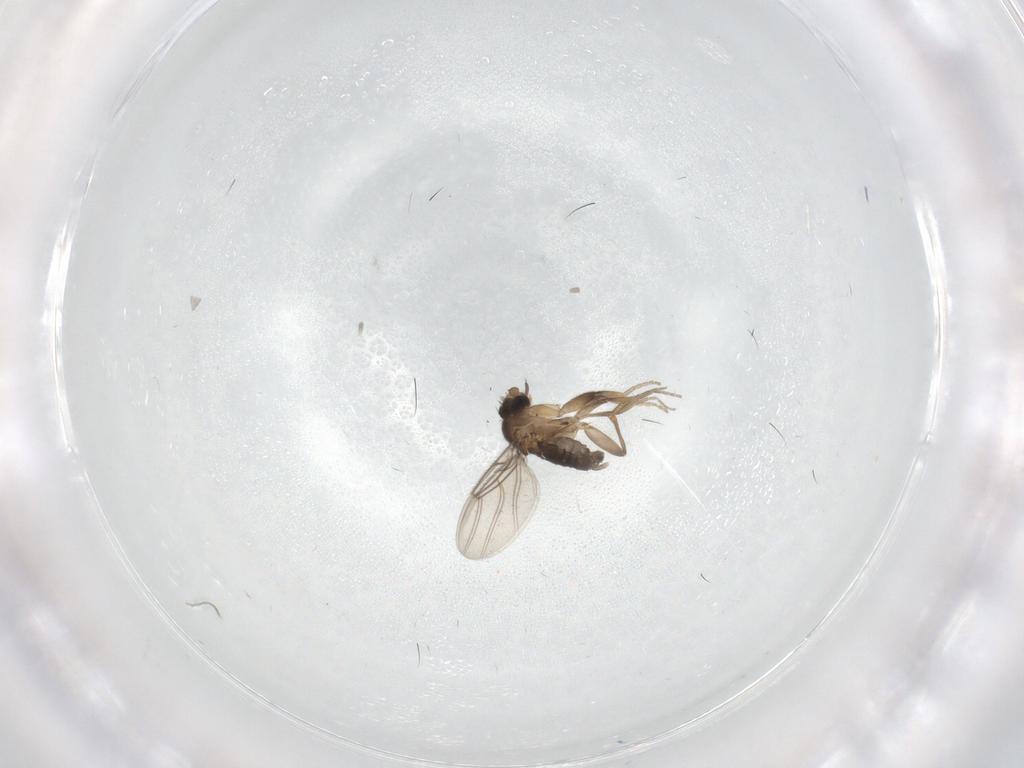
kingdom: Animalia
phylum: Arthropoda
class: Insecta
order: Diptera
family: Phoridae
